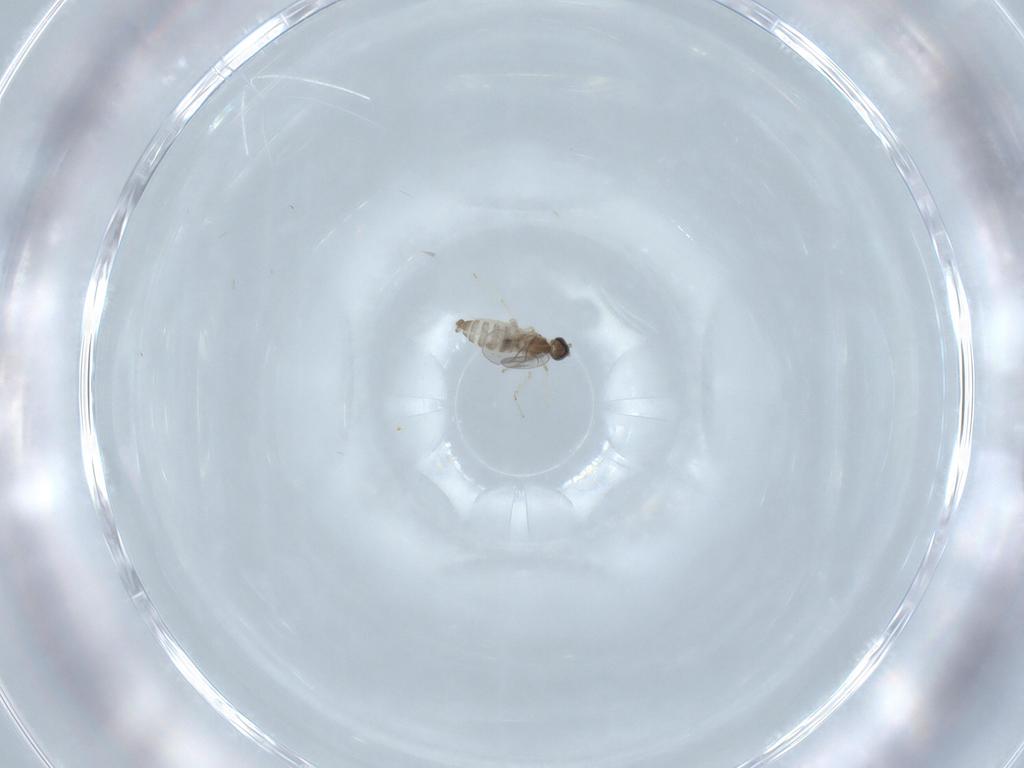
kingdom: Animalia
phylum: Arthropoda
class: Insecta
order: Diptera
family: Cecidomyiidae
